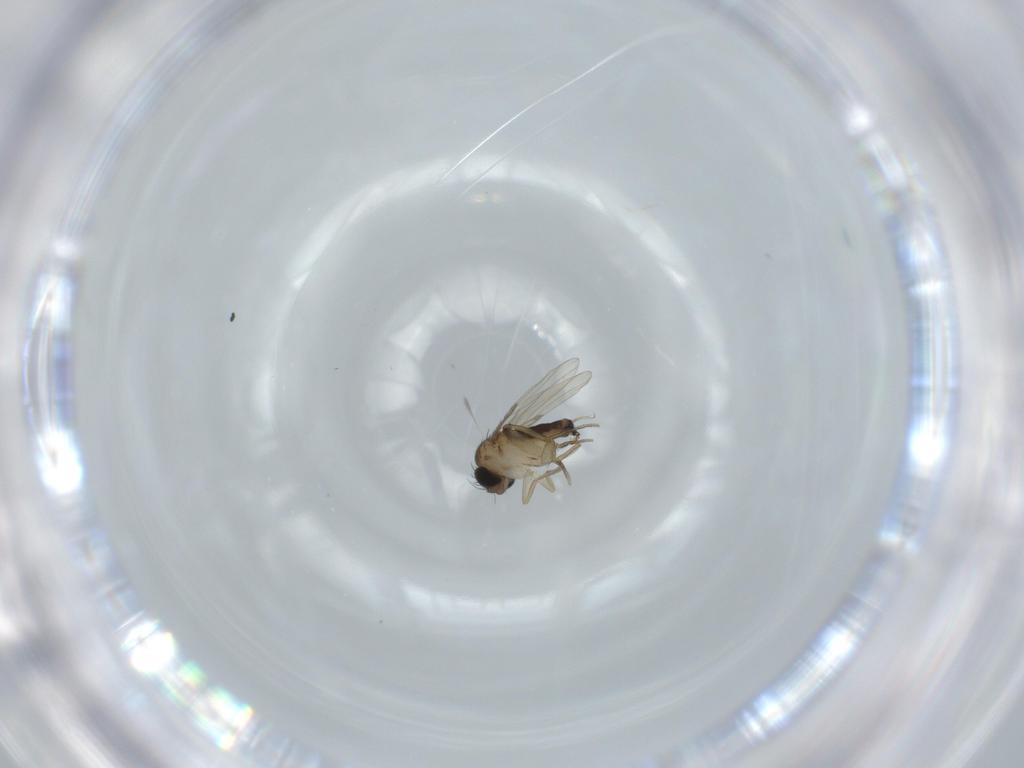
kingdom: Animalia
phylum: Arthropoda
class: Insecta
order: Diptera
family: Phoridae
